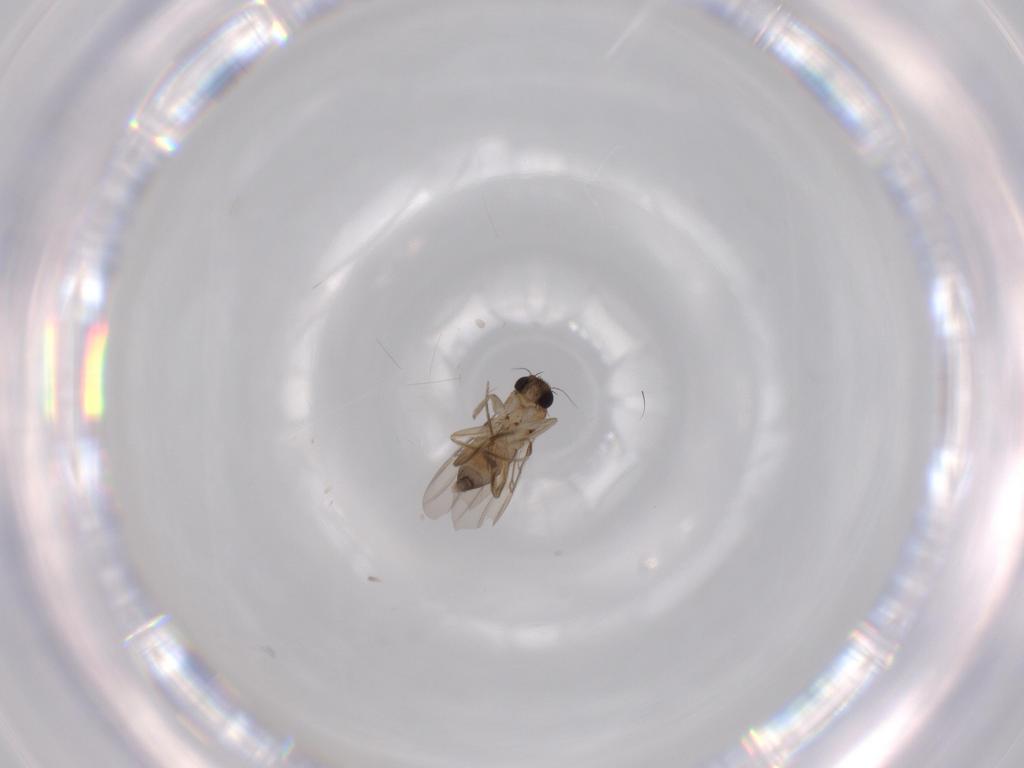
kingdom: Animalia
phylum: Arthropoda
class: Insecta
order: Diptera
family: Phoridae
